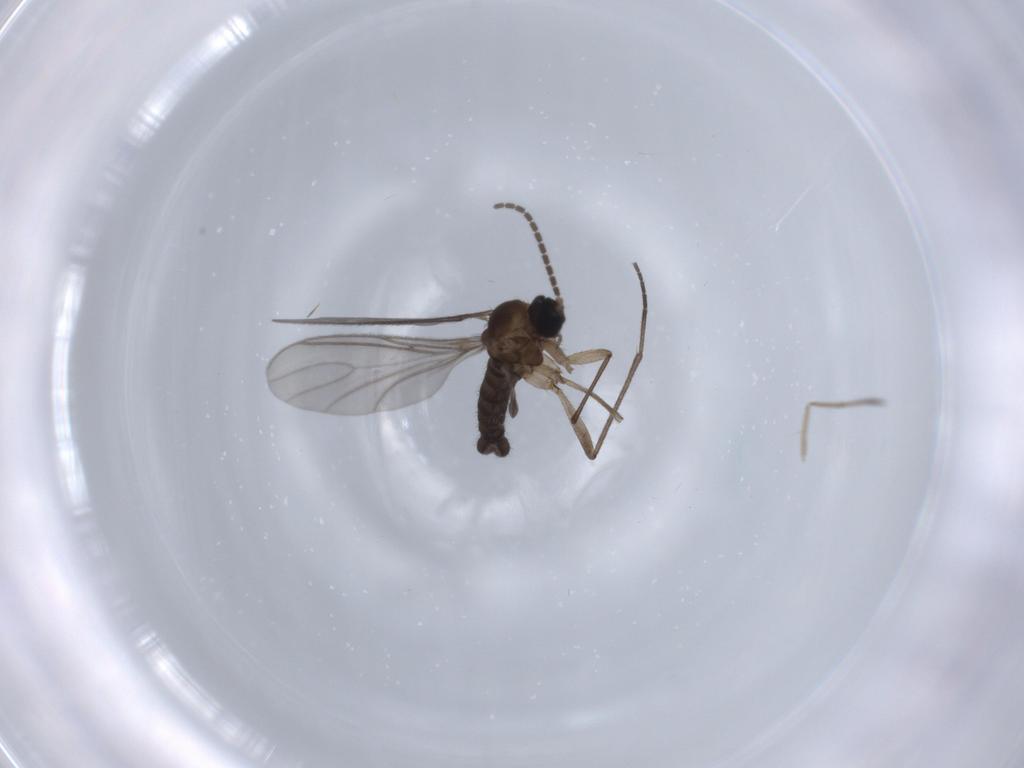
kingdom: Animalia
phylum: Arthropoda
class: Insecta
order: Diptera
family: Sciaridae
